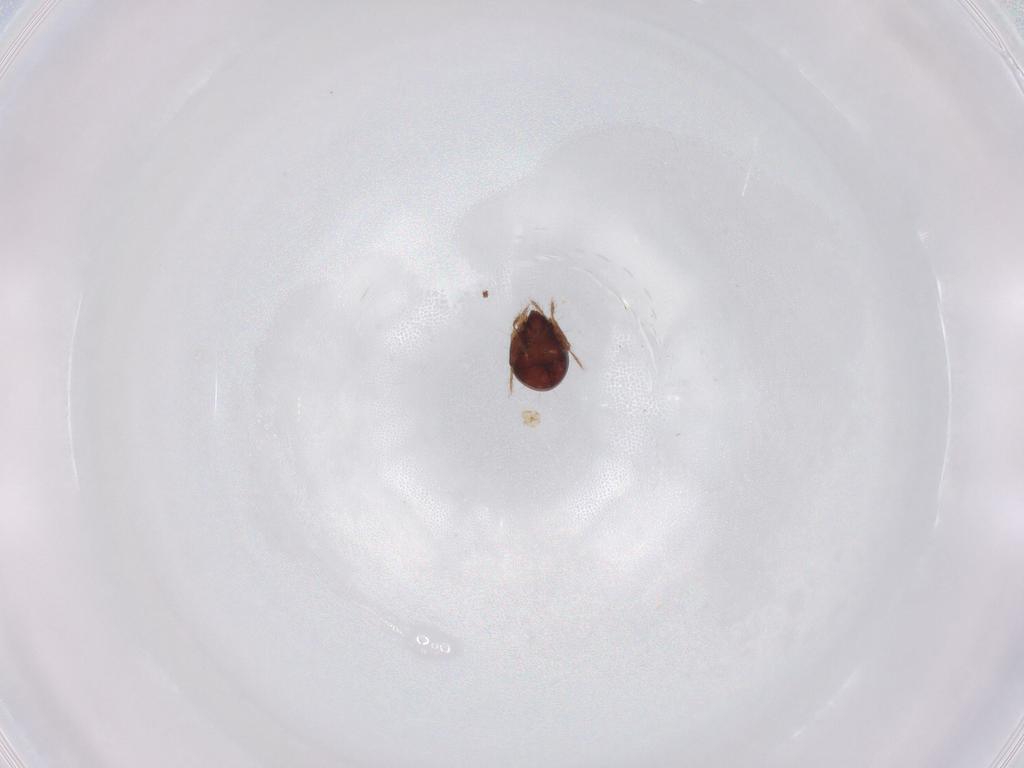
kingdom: Animalia
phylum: Arthropoda
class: Arachnida
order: Sarcoptiformes
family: Humerobatidae
